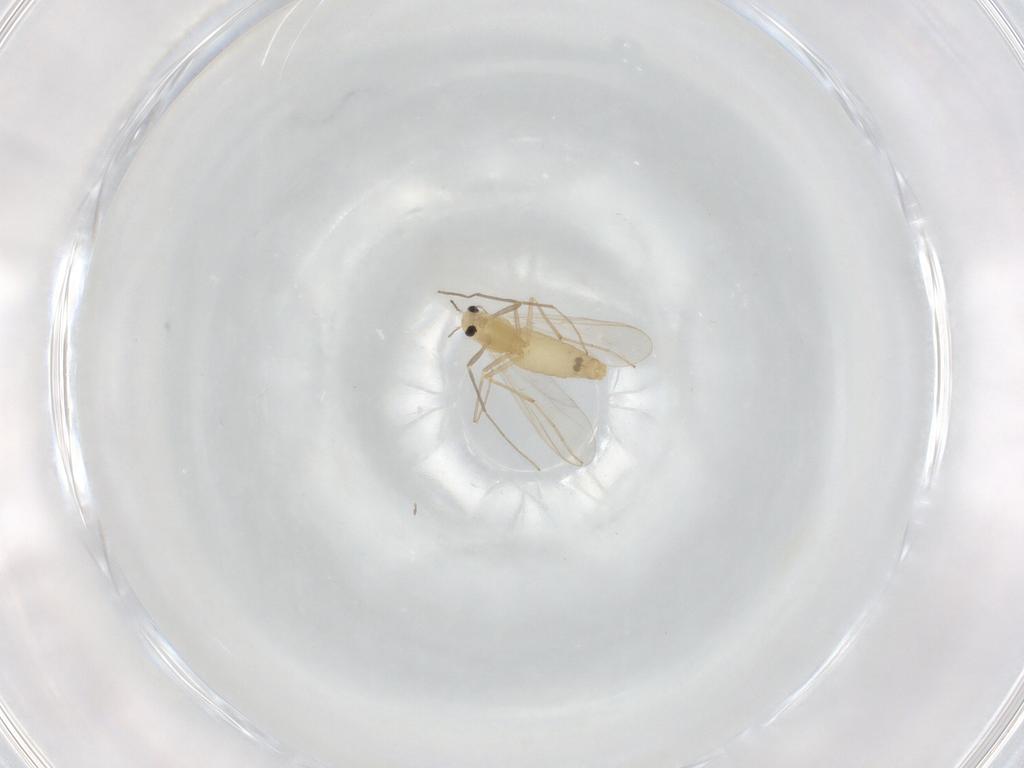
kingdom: Animalia
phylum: Arthropoda
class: Insecta
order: Diptera
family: Chironomidae
